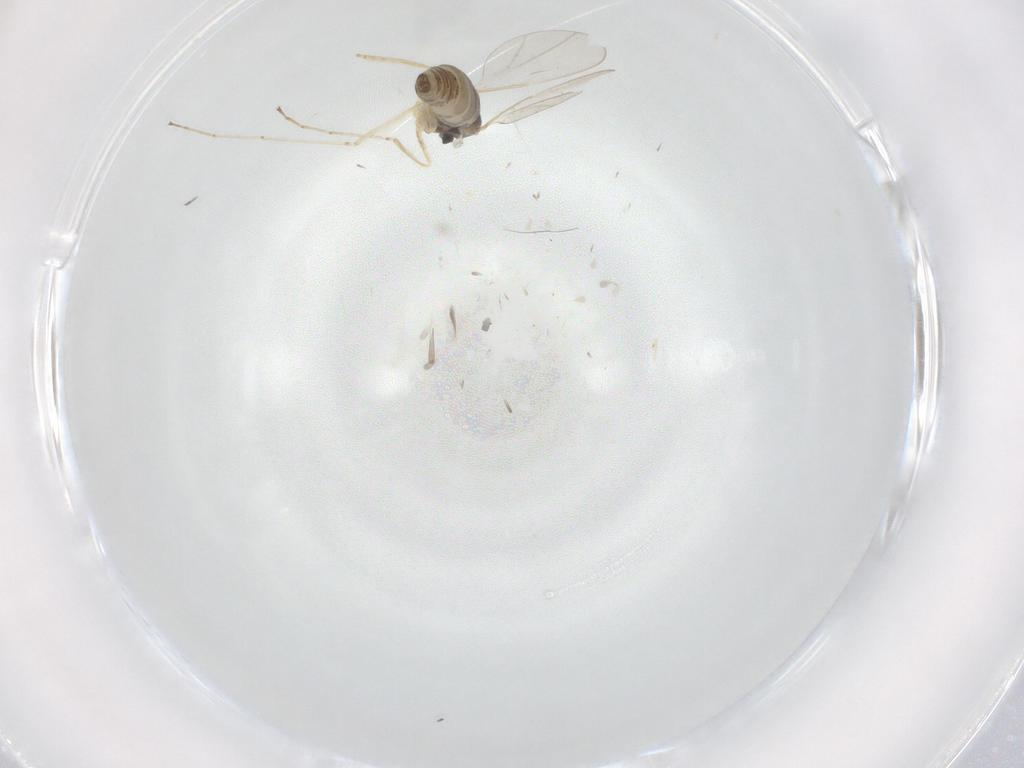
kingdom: Animalia
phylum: Arthropoda
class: Insecta
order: Diptera
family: Cecidomyiidae
